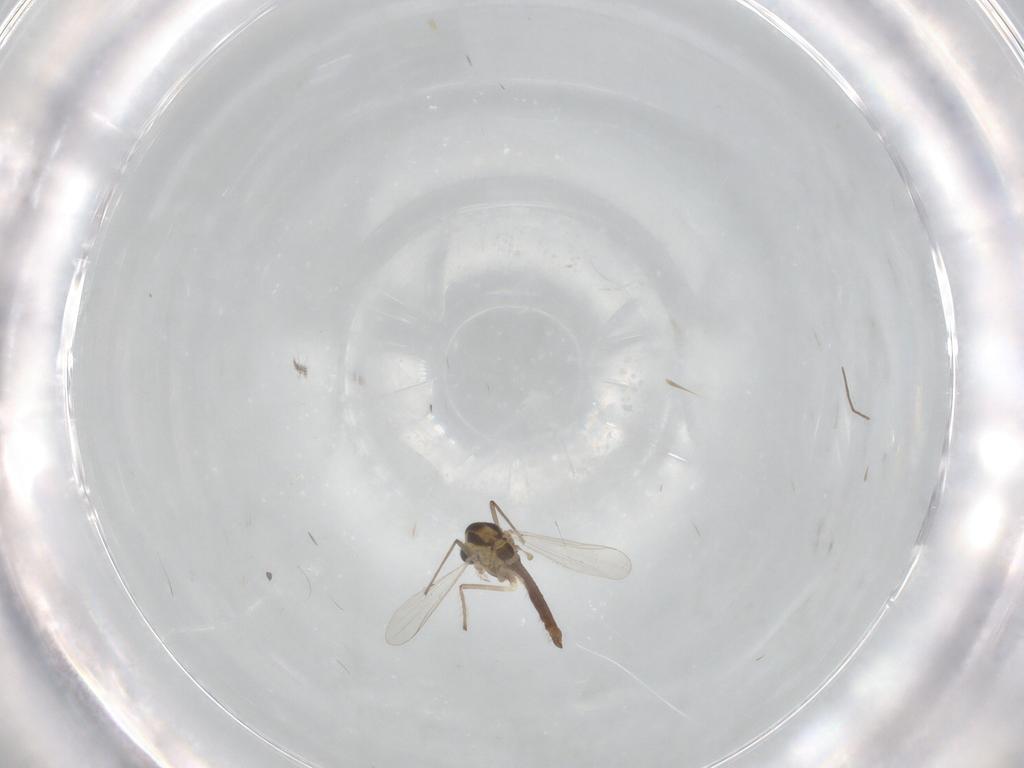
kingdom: Animalia
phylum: Arthropoda
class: Insecta
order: Diptera
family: Chironomidae
